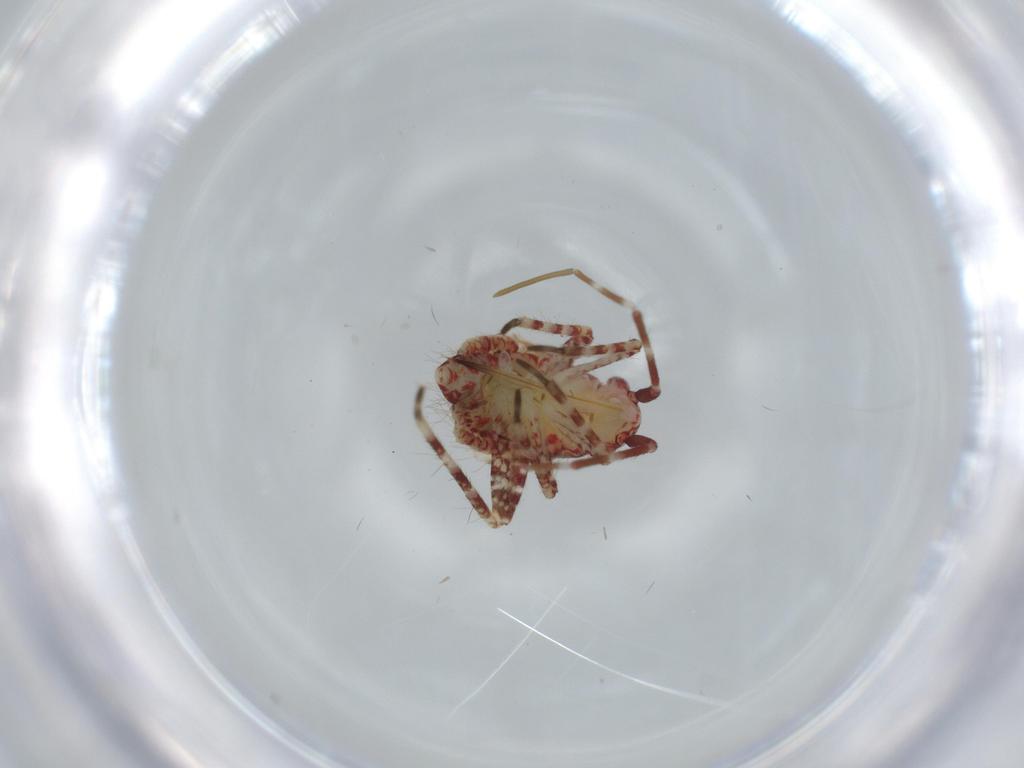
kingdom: Animalia
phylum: Arthropoda
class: Insecta
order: Hemiptera
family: Miridae
